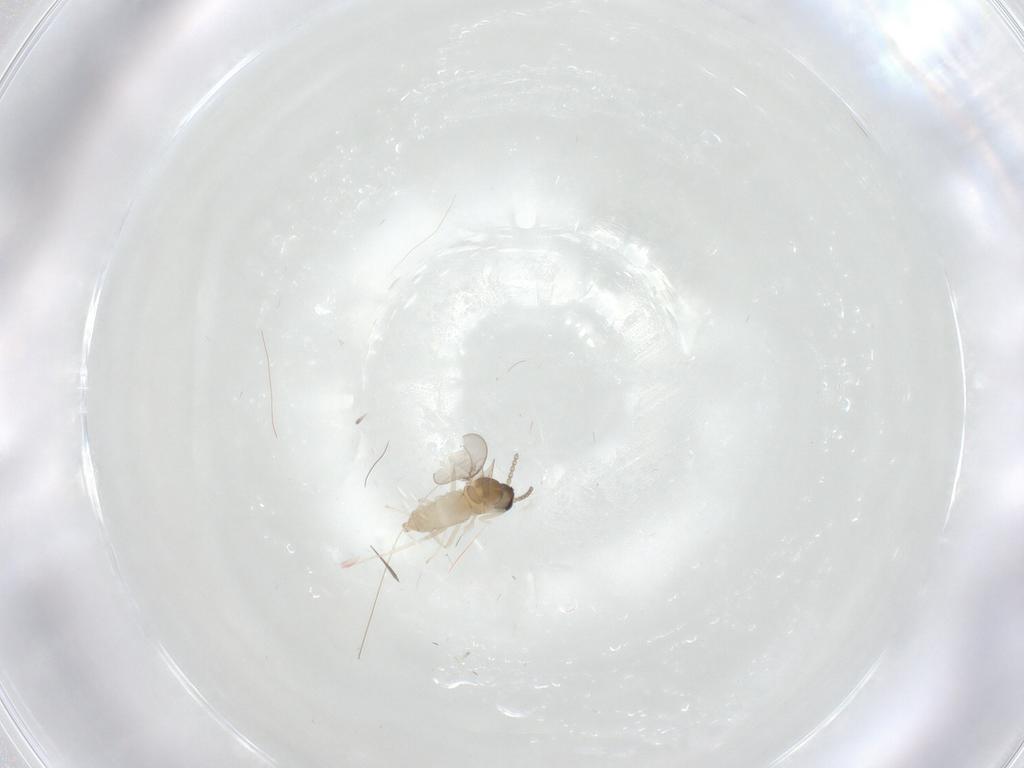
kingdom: Animalia
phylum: Arthropoda
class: Insecta
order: Diptera
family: Cecidomyiidae
